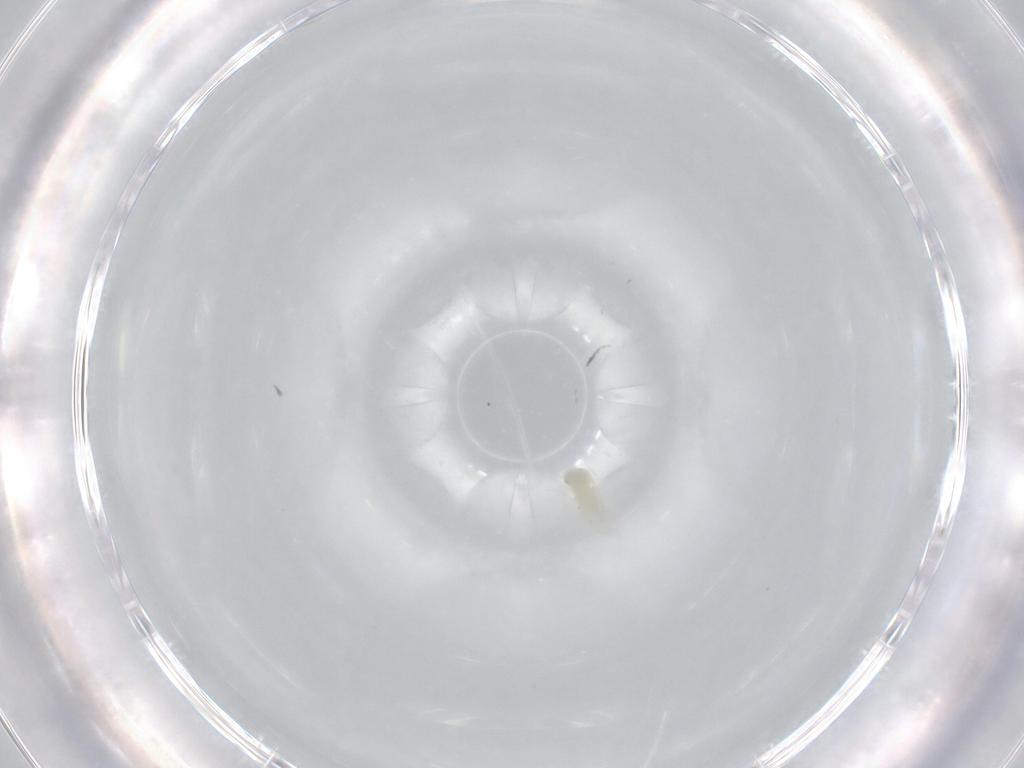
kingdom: Animalia
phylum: Arthropoda
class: Insecta
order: Hemiptera
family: Aleyrodidae
